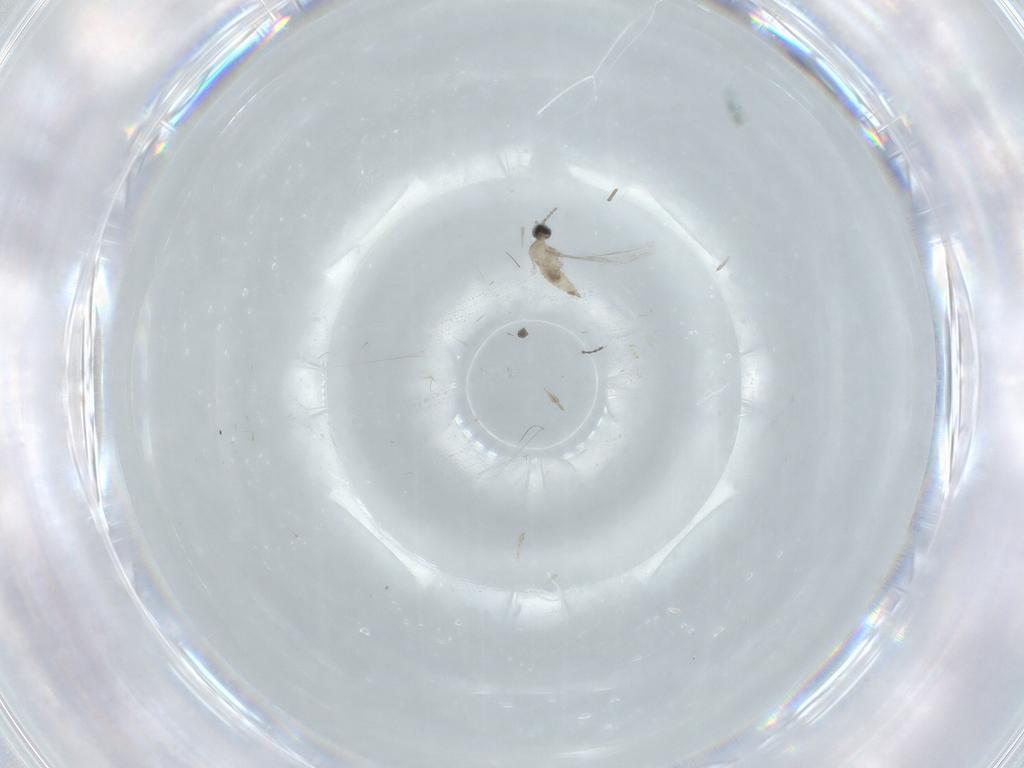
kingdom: Animalia
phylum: Arthropoda
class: Insecta
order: Diptera
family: Cecidomyiidae
